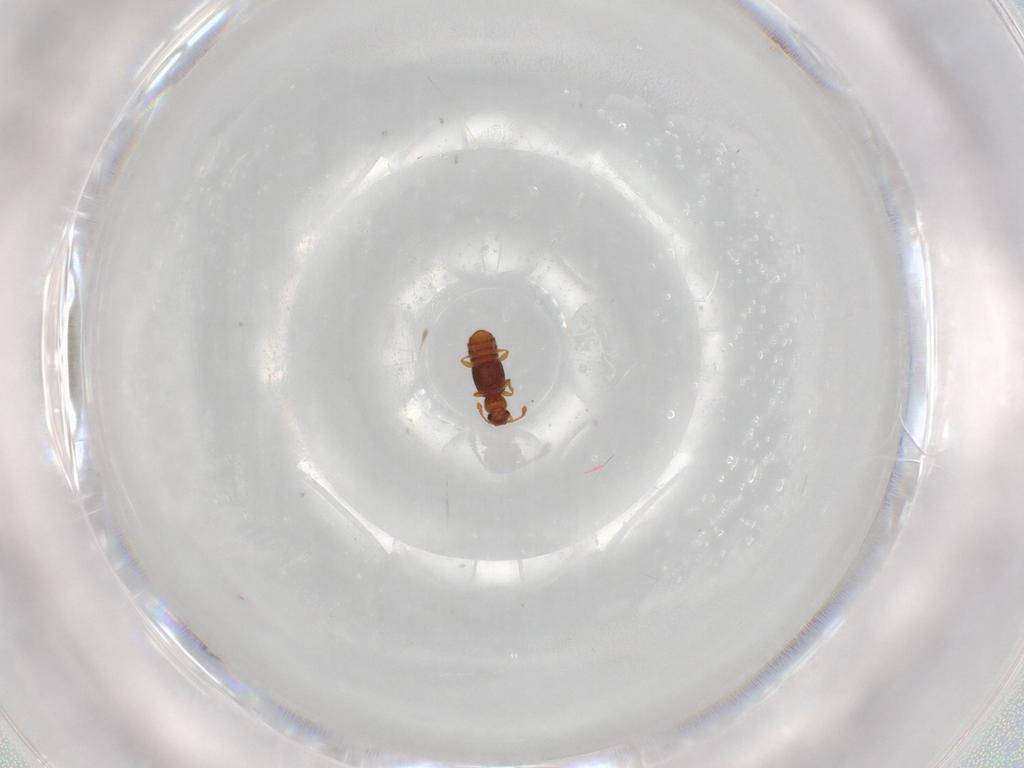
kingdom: Animalia
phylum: Arthropoda
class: Insecta
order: Coleoptera
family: Staphylinidae
